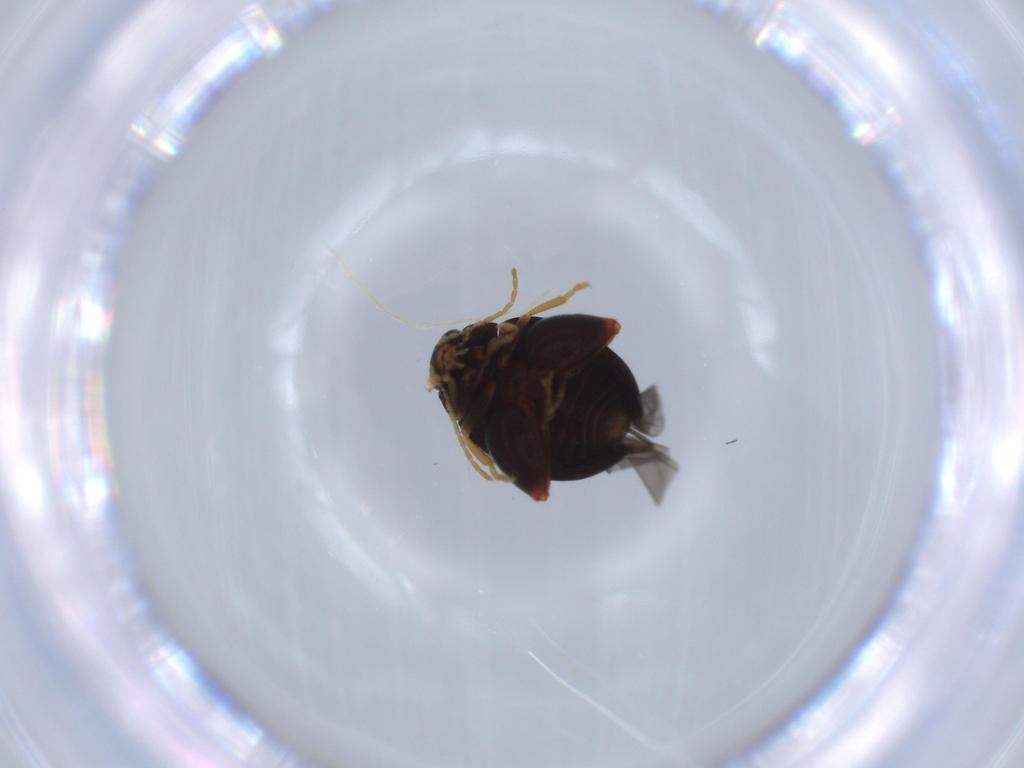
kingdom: Animalia
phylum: Arthropoda
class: Insecta
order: Coleoptera
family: Chrysomelidae
